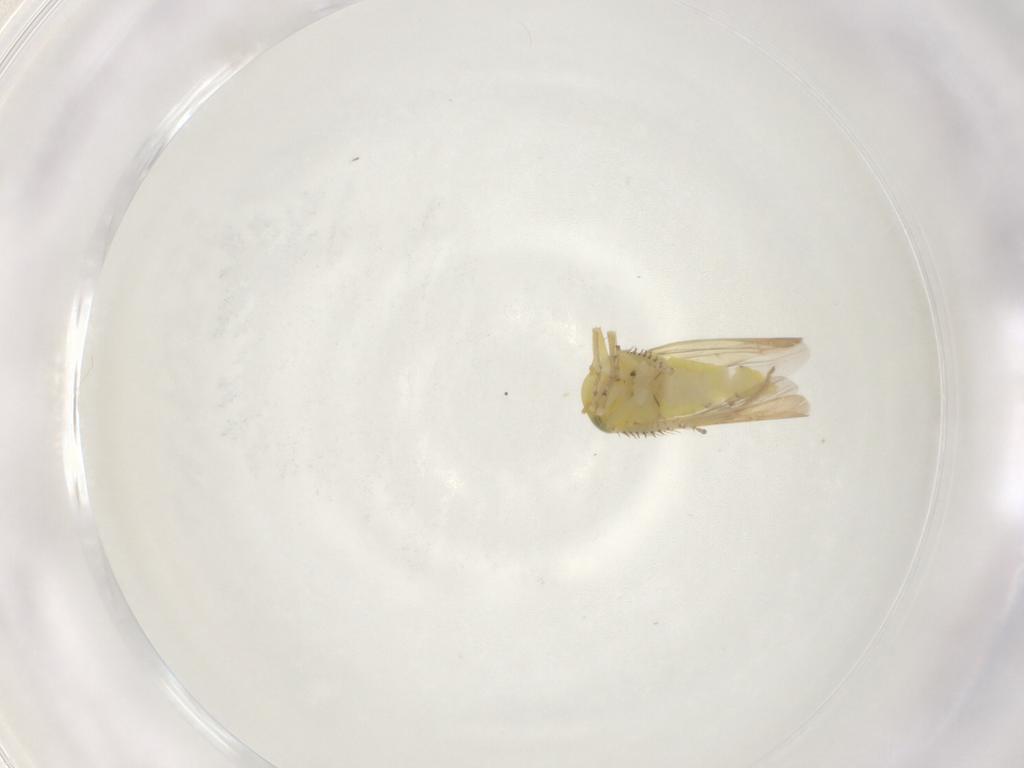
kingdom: Animalia
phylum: Arthropoda
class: Insecta
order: Hemiptera
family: Cicadellidae
